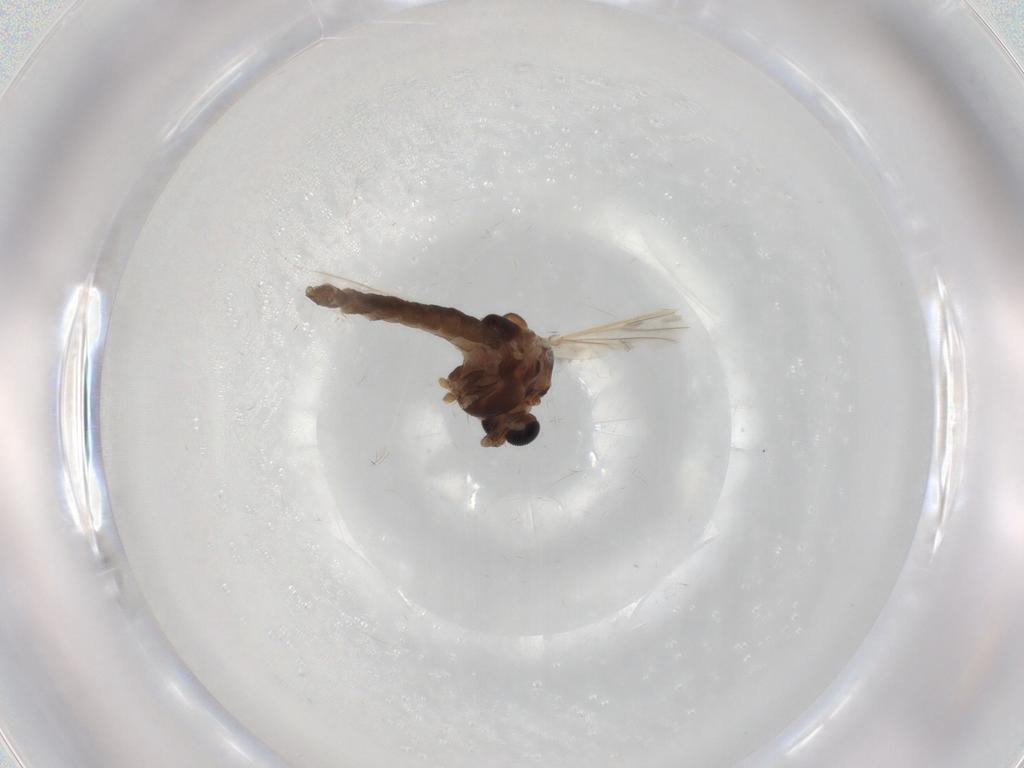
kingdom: Animalia
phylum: Arthropoda
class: Insecta
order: Diptera
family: Chironomidae
